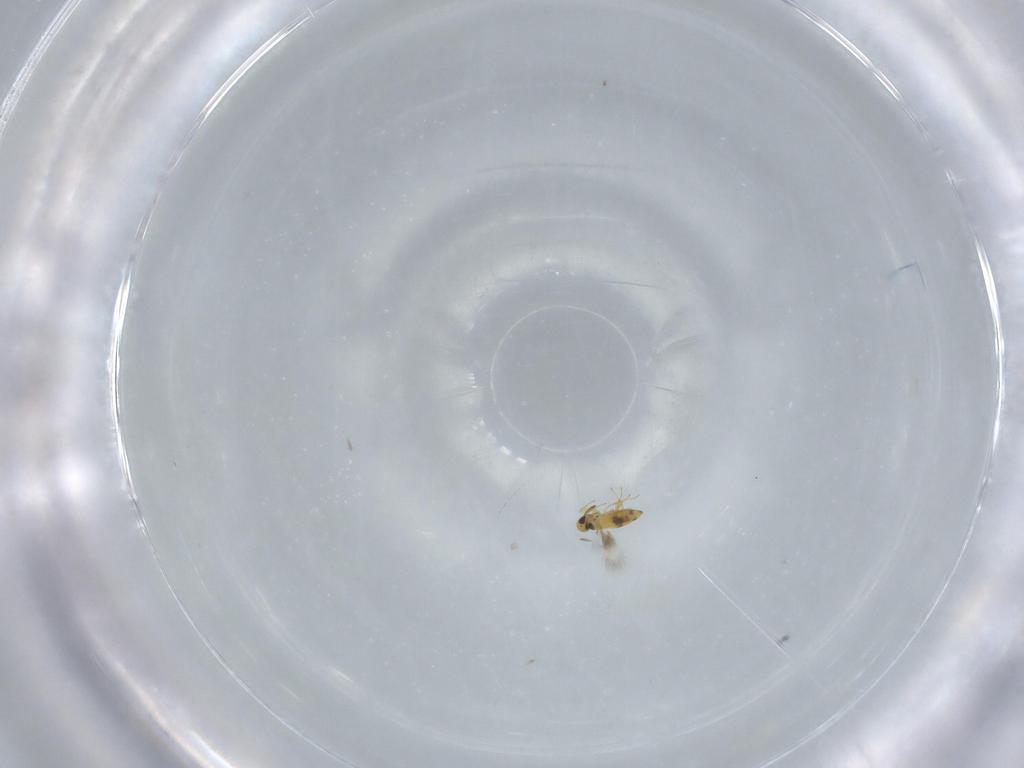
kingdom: Animalia
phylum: Arthropoda
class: Insecta
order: Hymenoptera
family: Signiphoridae
